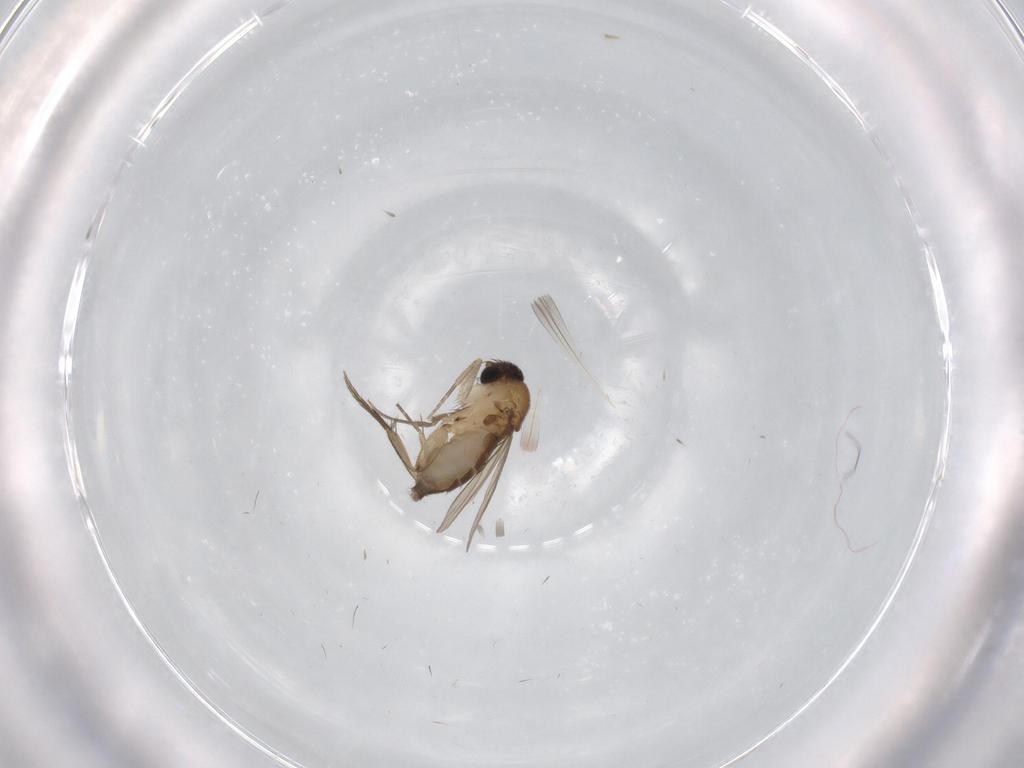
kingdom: Animalia
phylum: Arthropoda
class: Insecta
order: Diptera
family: Phoridae
